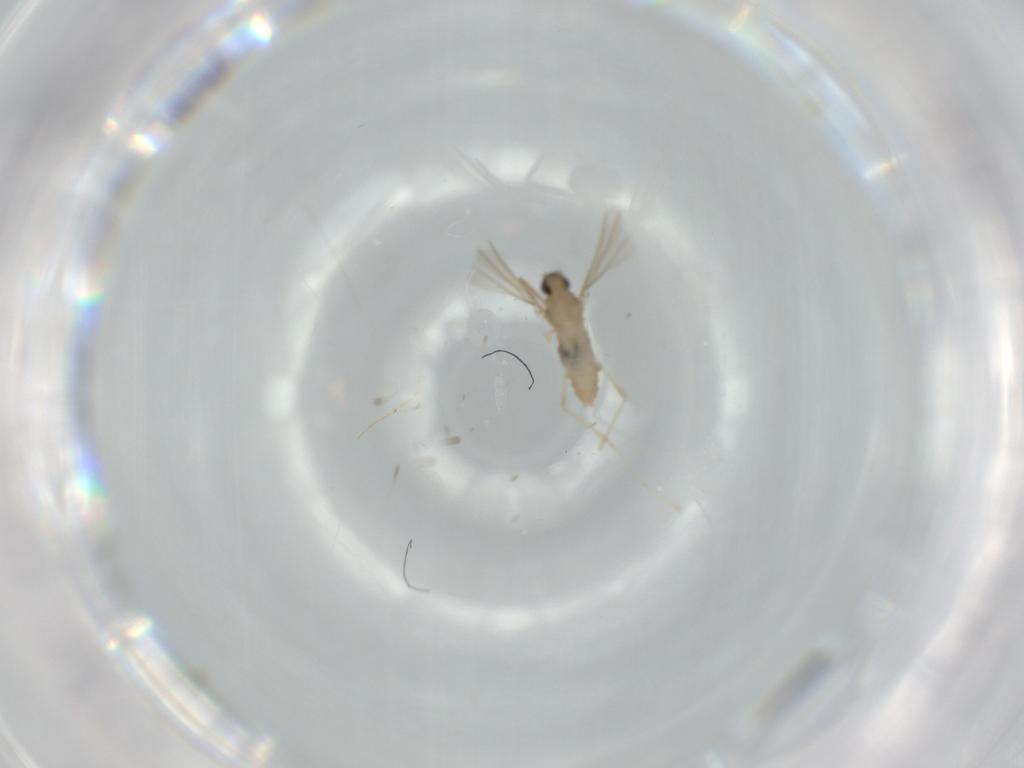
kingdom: Animalia
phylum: Arthropoda
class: Insecta
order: Diptera
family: Cecidomyiidae
